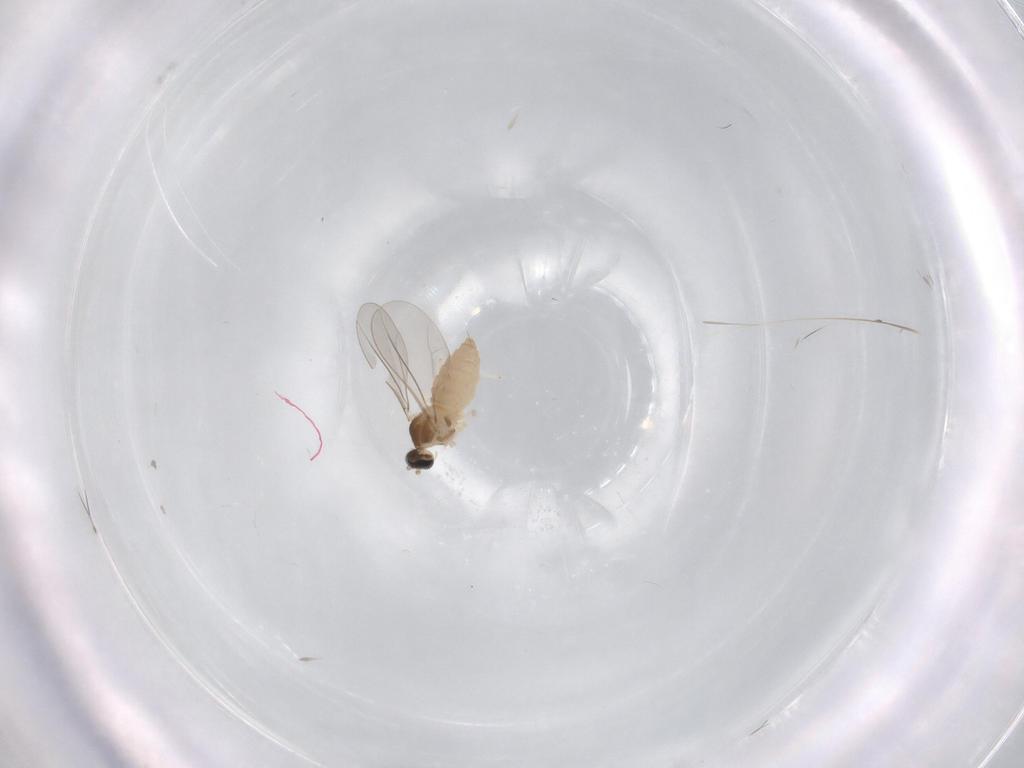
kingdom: Animalia
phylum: Arthropoda
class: Insecta
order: Diptera
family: Cecidomyiidae
